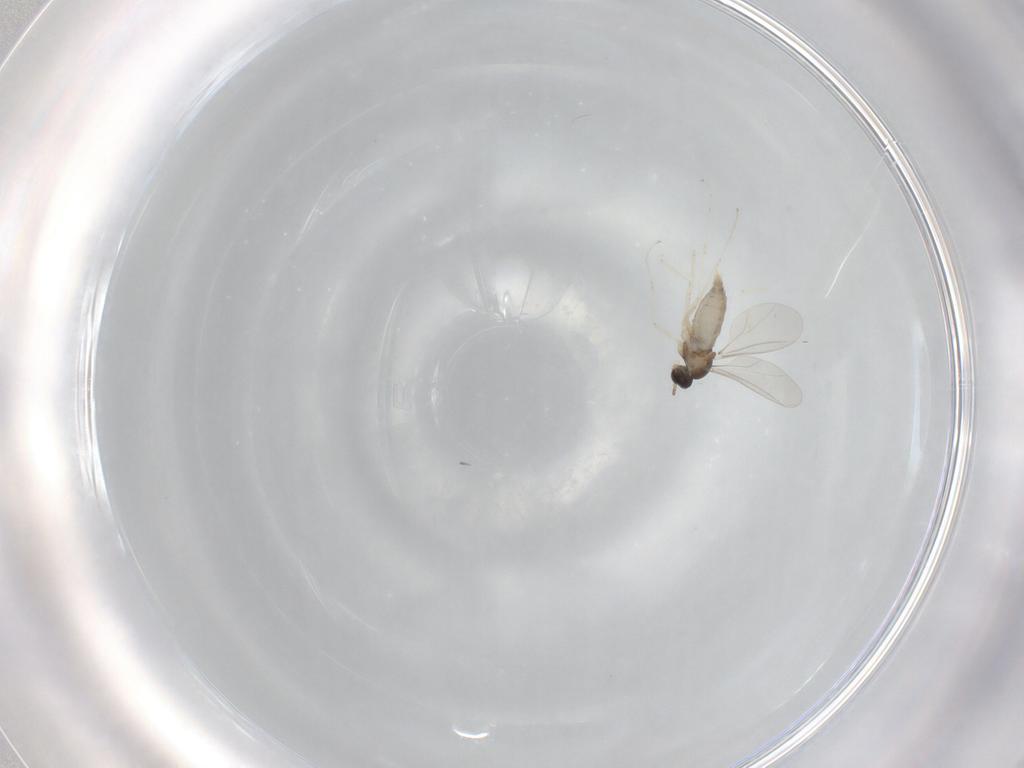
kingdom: Animalia
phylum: Arthropoda
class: Insecta
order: Diptera
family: Cecidomyiidae
